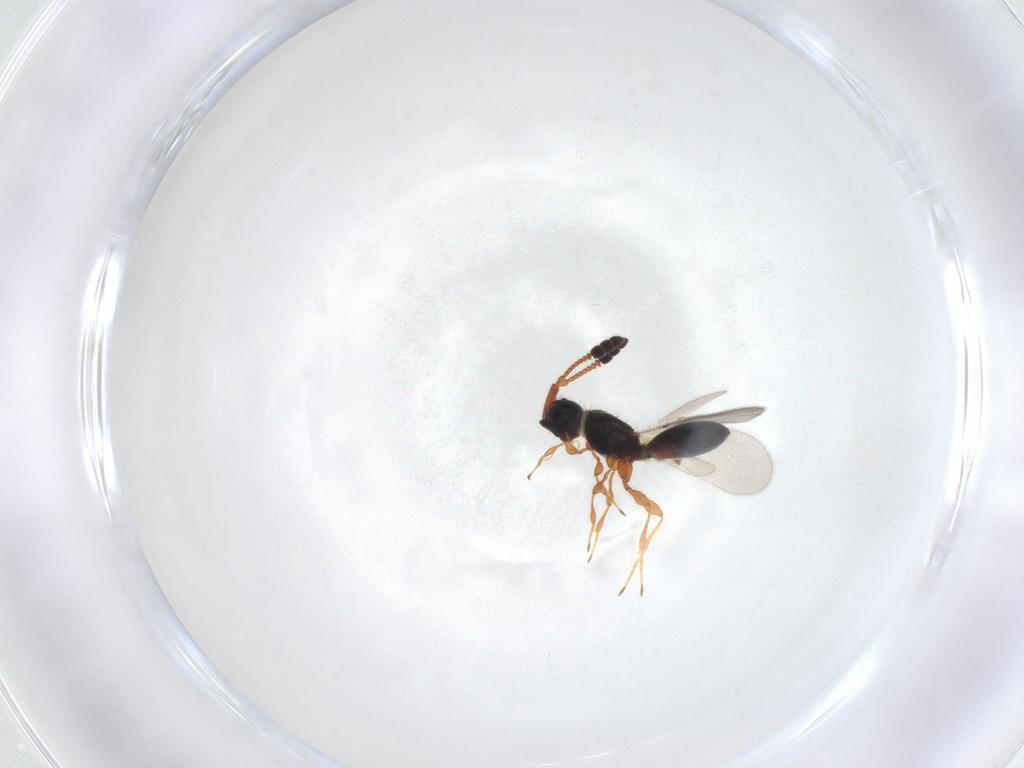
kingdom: Animalia
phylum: Arthropoda
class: Insecta
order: Hymenoptera
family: Diapriidae
